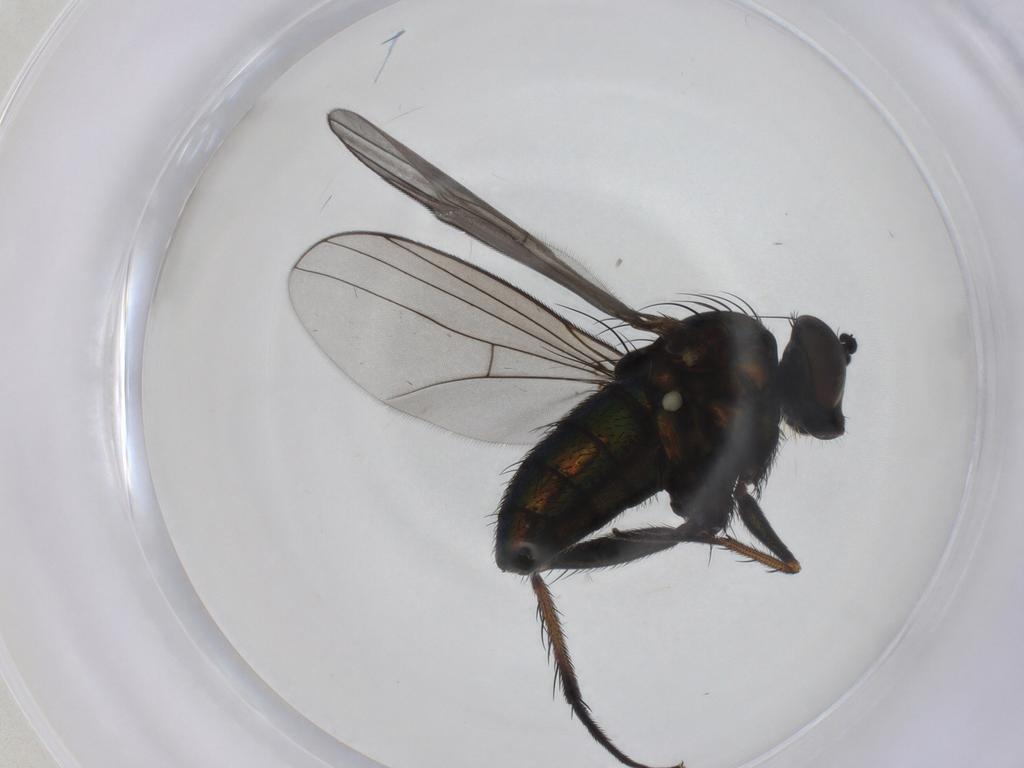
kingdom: Animalia
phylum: Arthropoda
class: Insecta
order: Diptera
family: Dolichopodidae
